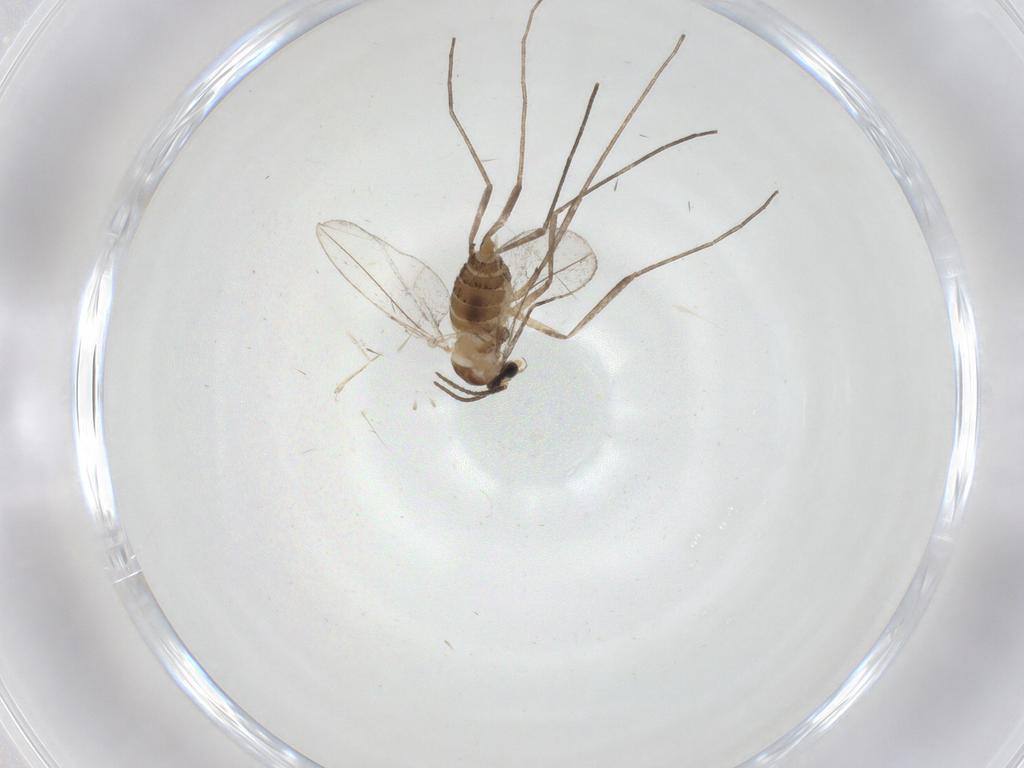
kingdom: Animalia
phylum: Arthropoda
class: Insecta
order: Diptera
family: Cecidomyiidae
